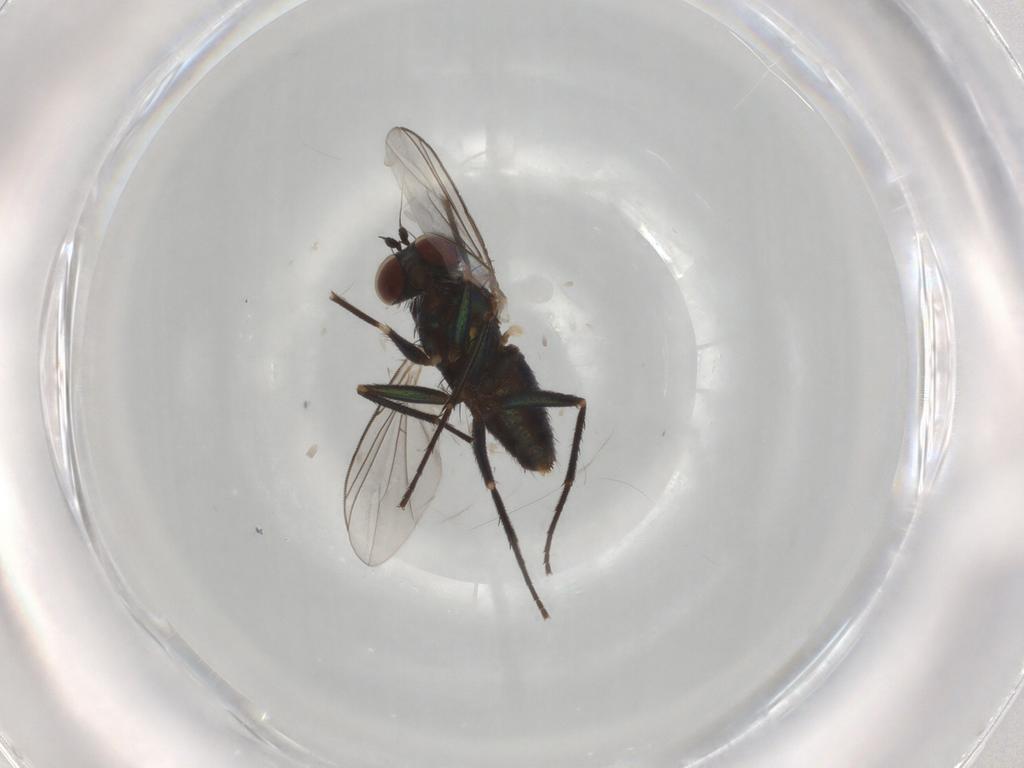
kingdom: Animalia
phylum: Arthropoda
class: Insecta
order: Diptera
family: Dolichopodidae
